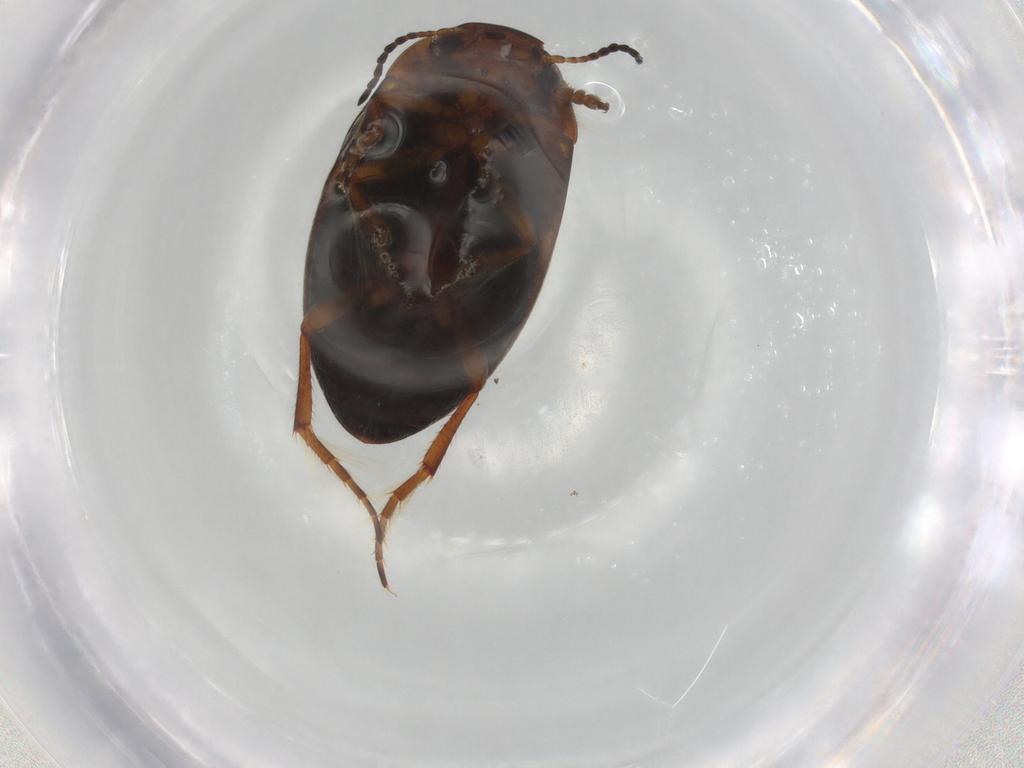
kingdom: Animalia
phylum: Arthropoda
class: Insecta
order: Coleoptera
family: Dytiscidae
